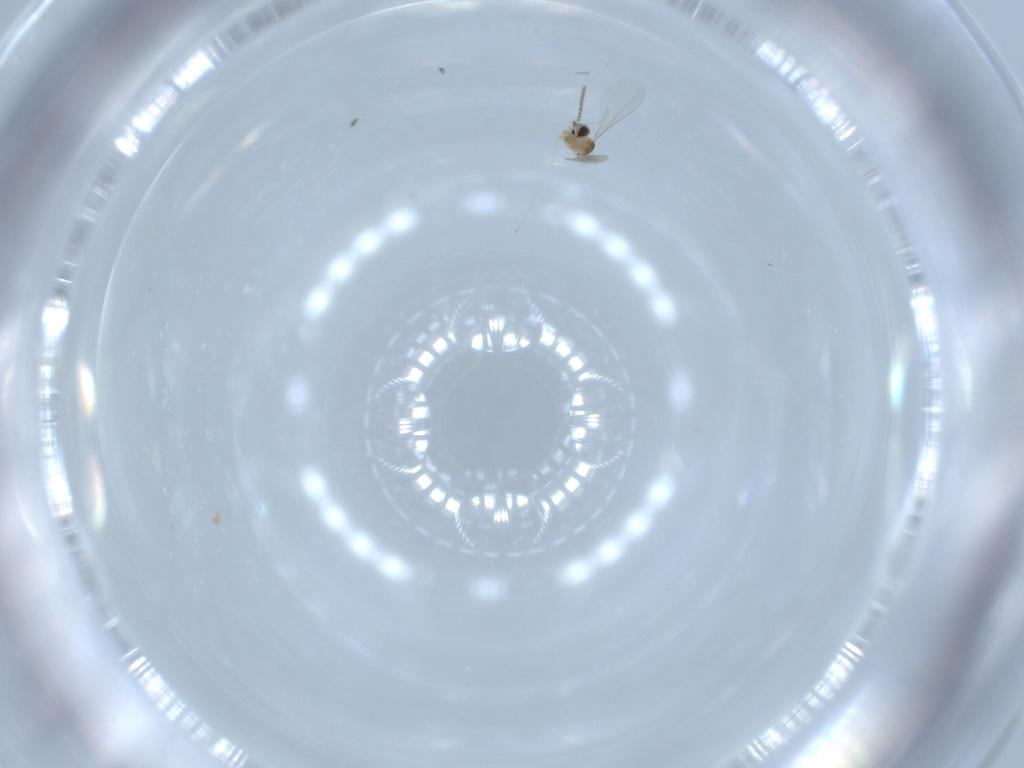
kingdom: Animalia
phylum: Arthropoda
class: Insecta
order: Diptera
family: Chironomidae
